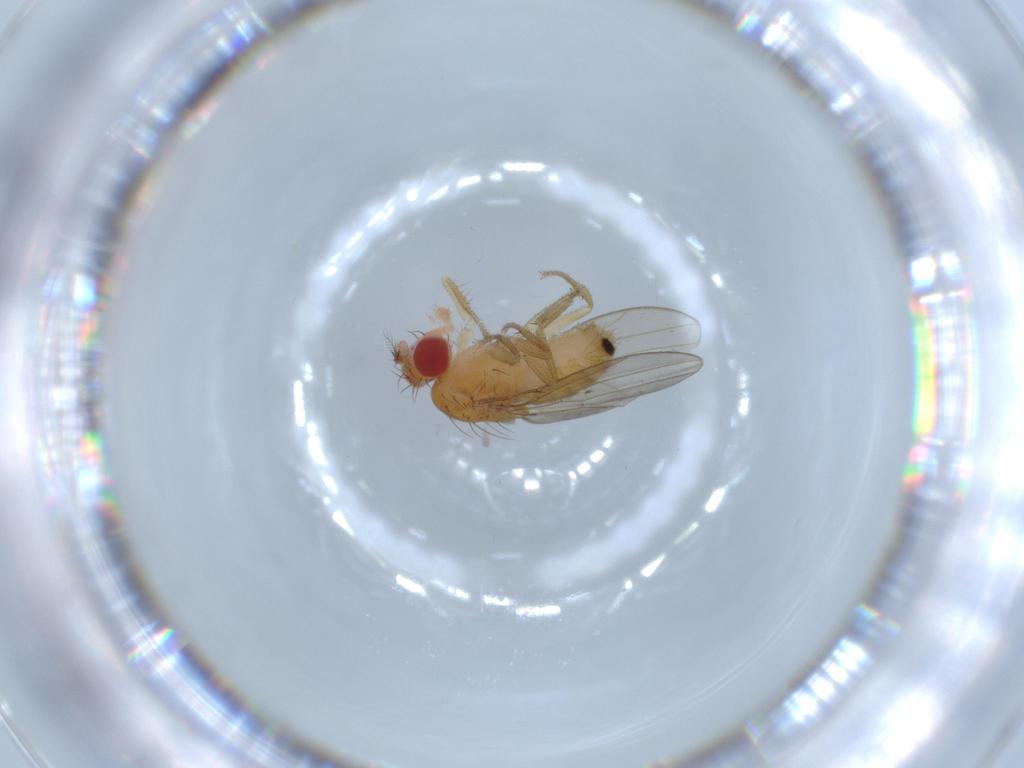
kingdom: Animalia
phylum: Arthropoda
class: Insecta
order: Diptera
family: Drosophilidae
